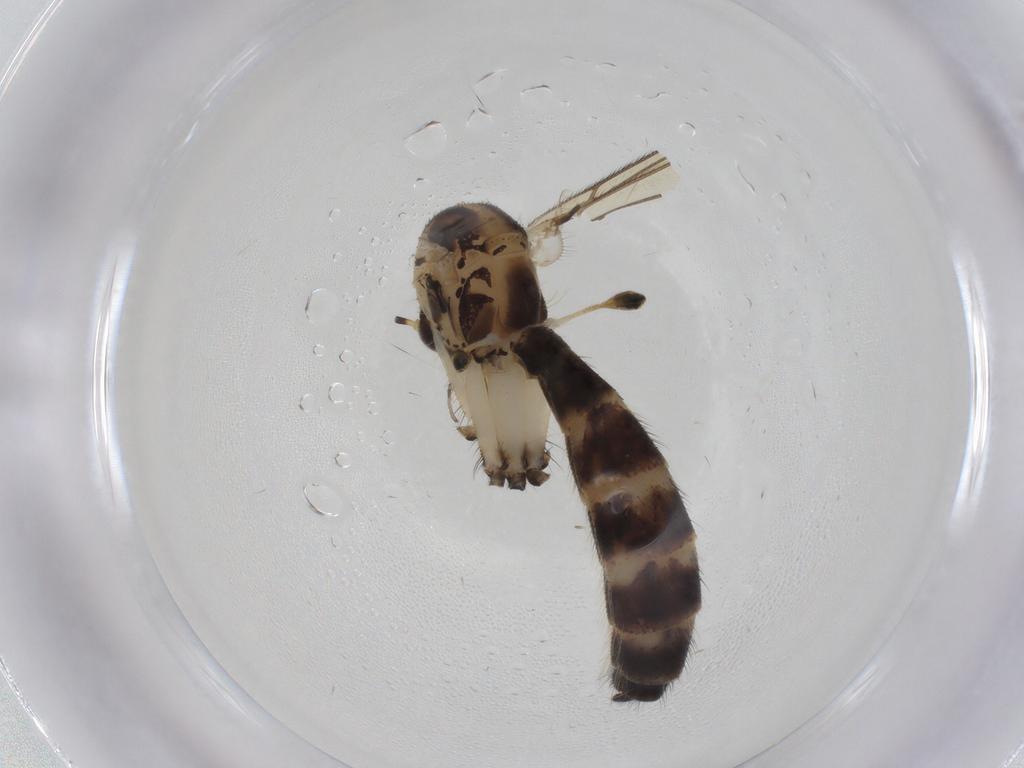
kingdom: Animalia
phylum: Arthropoda
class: Insecta
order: Diptera
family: Mycetophilidae
